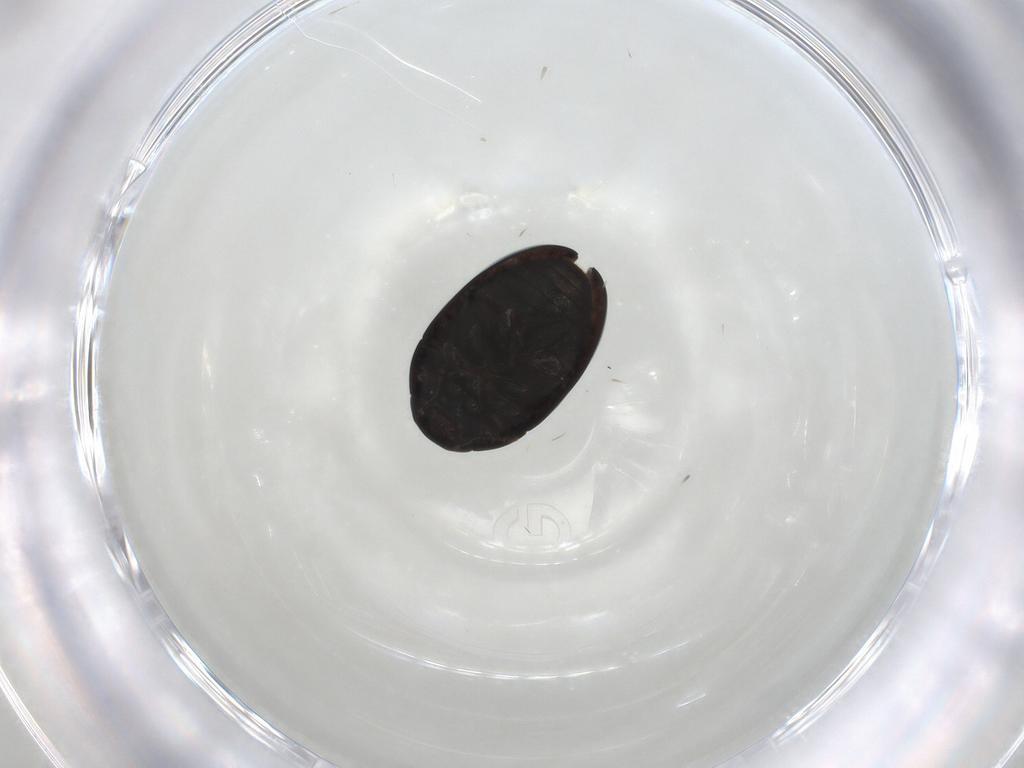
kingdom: Animalia
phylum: Arthropoda
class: Insecta
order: Coleoptera
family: Phalacridae
